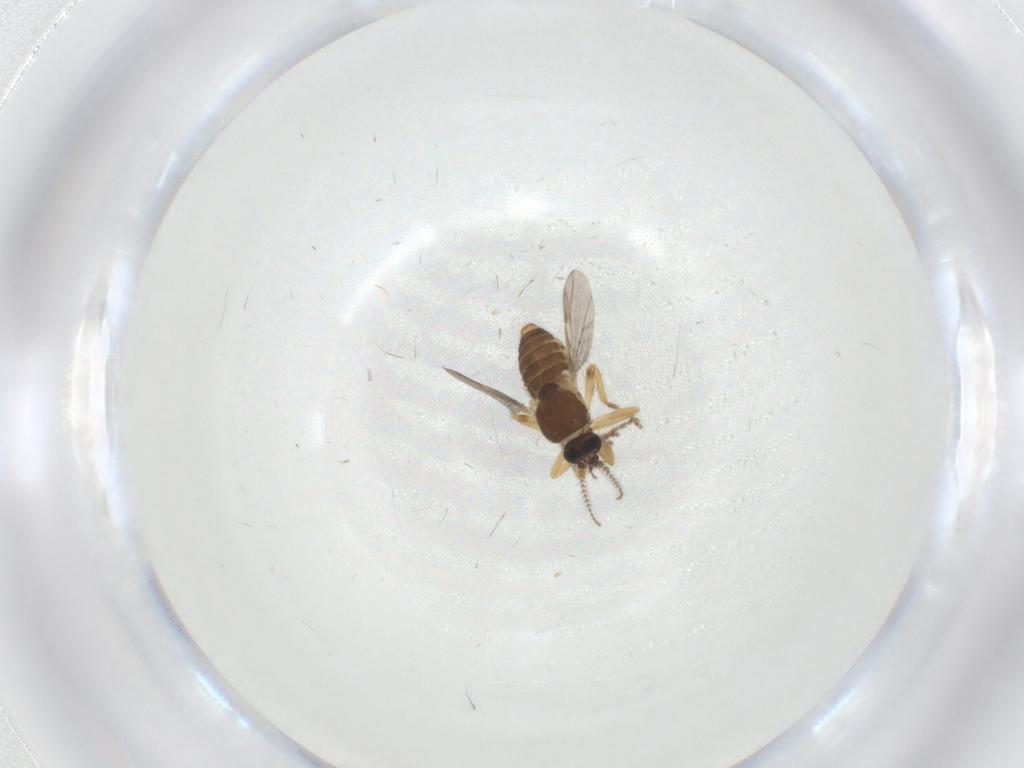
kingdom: Animalia
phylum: Arthropoda
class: Insecta
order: Diptera
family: Ceratopogonidae
